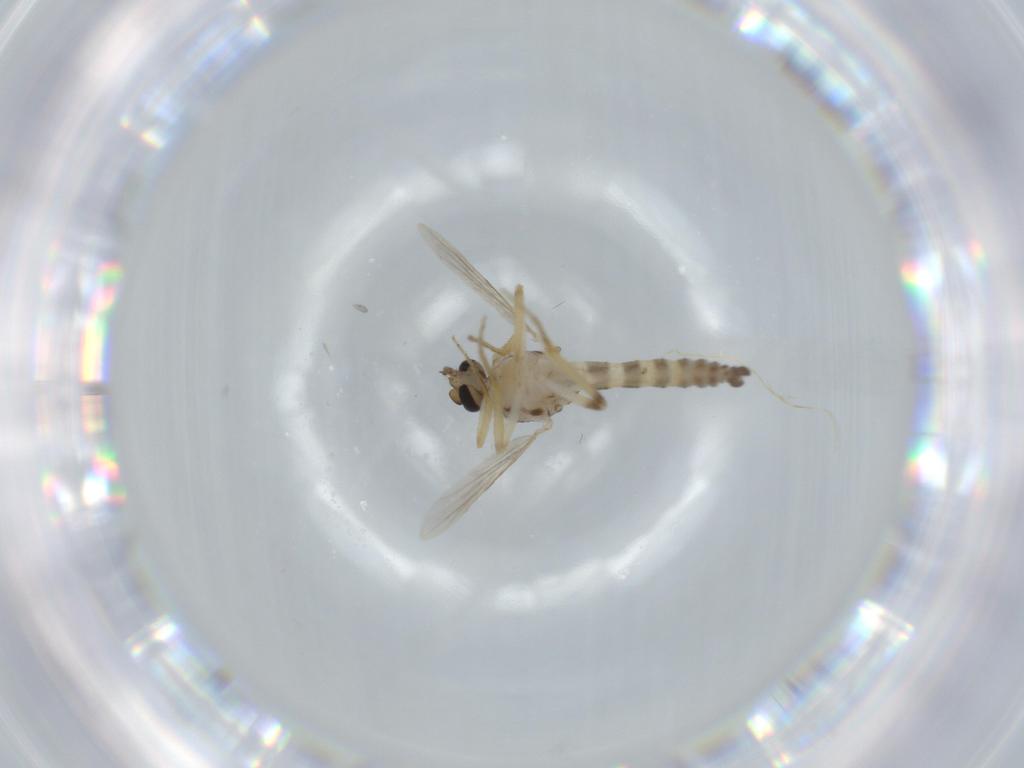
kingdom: Animalia
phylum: Arthropoda
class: Insecta
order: Diptera
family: Ceratopogonidae
